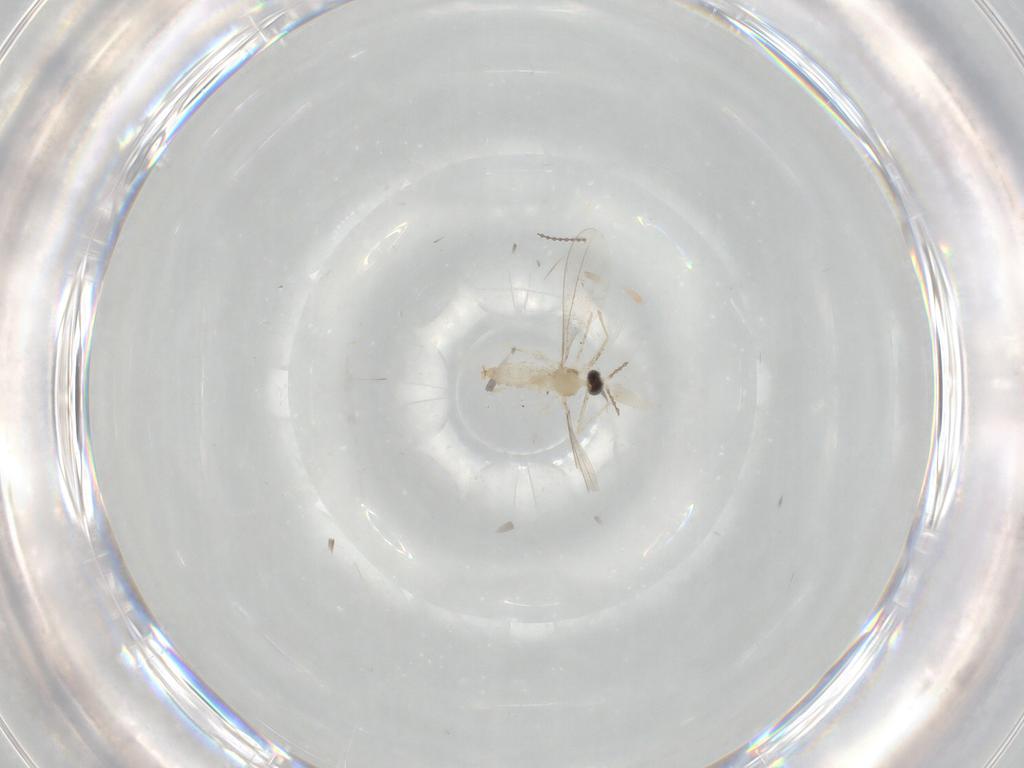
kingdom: Animalia
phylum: Arthropoda
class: Insecta
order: Diptera
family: Cecidomyiidae
